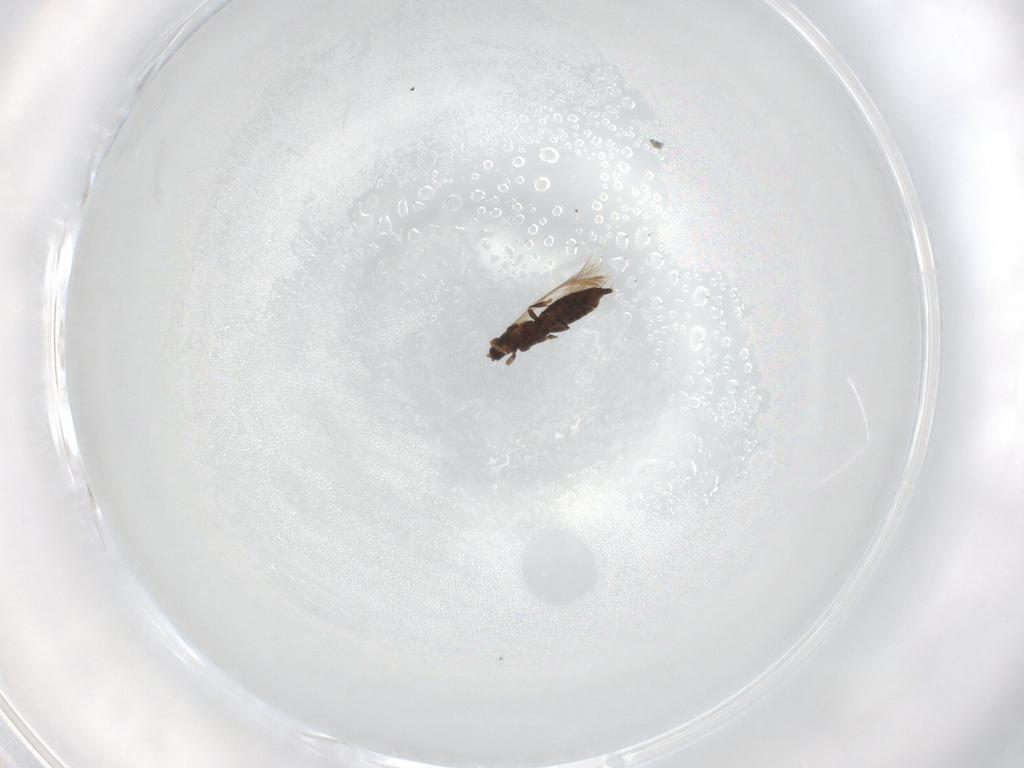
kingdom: Animalia
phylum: Arthropoda
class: Insecta
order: Thysanoptera
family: Thripidae
